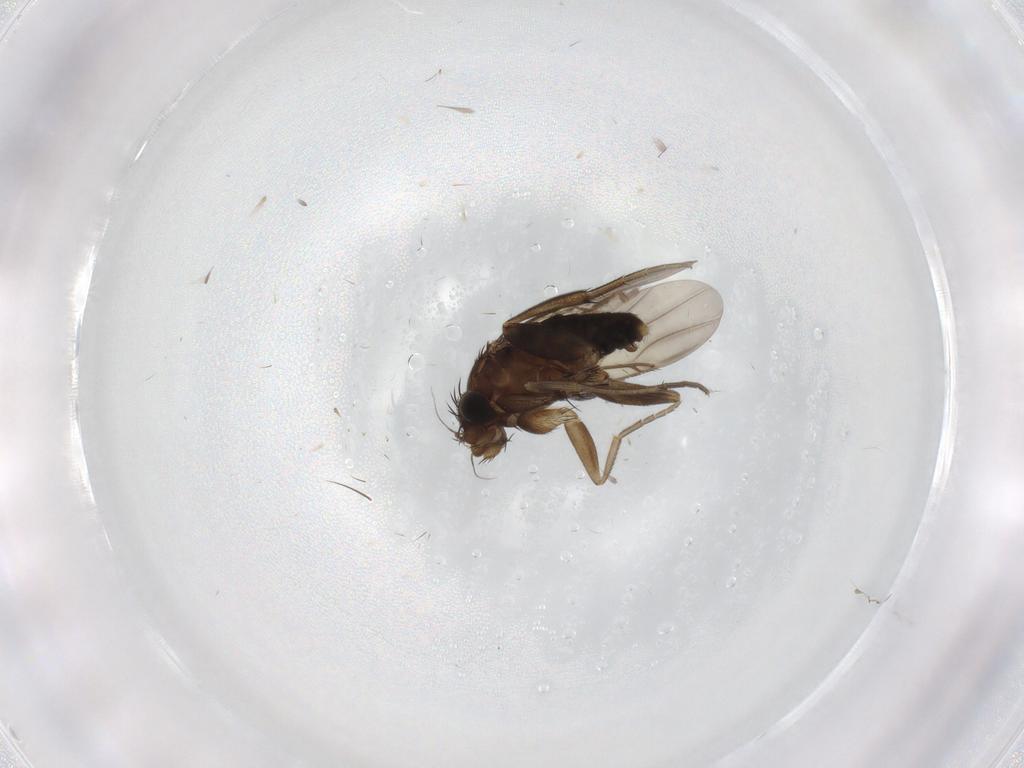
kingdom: Animalia
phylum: Arthropoda
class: Insecta
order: Diptera
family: Phoridae
